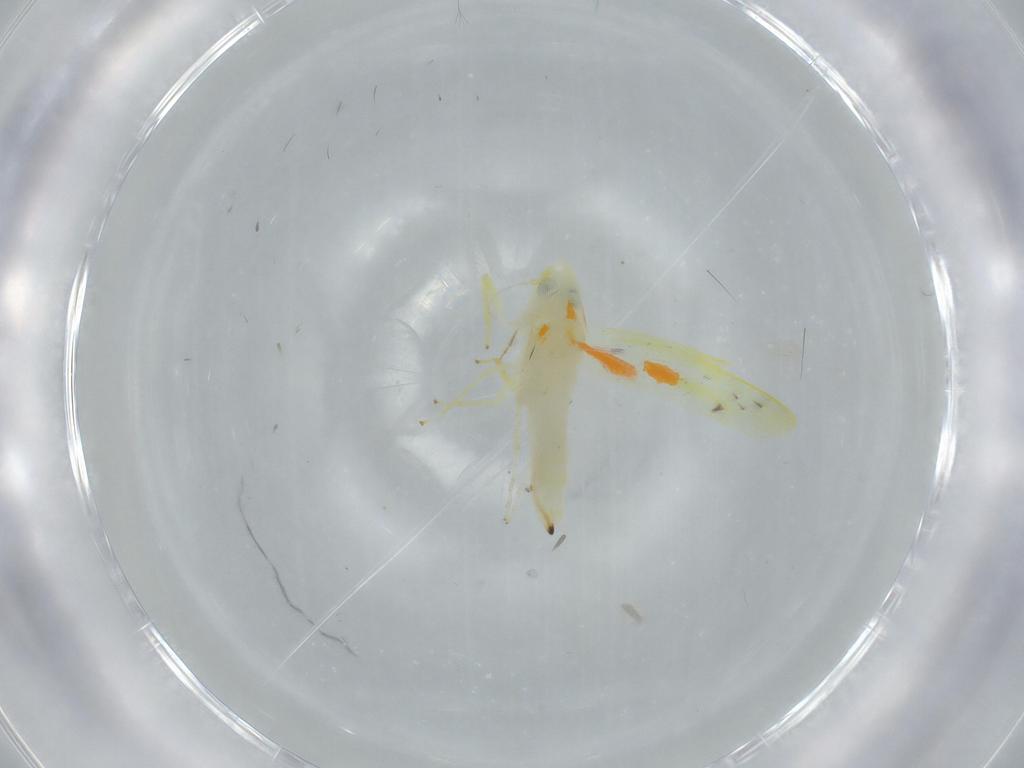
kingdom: Animalia
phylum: Arthropoda
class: Insecta
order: Hemiptera
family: Cicadellidae
